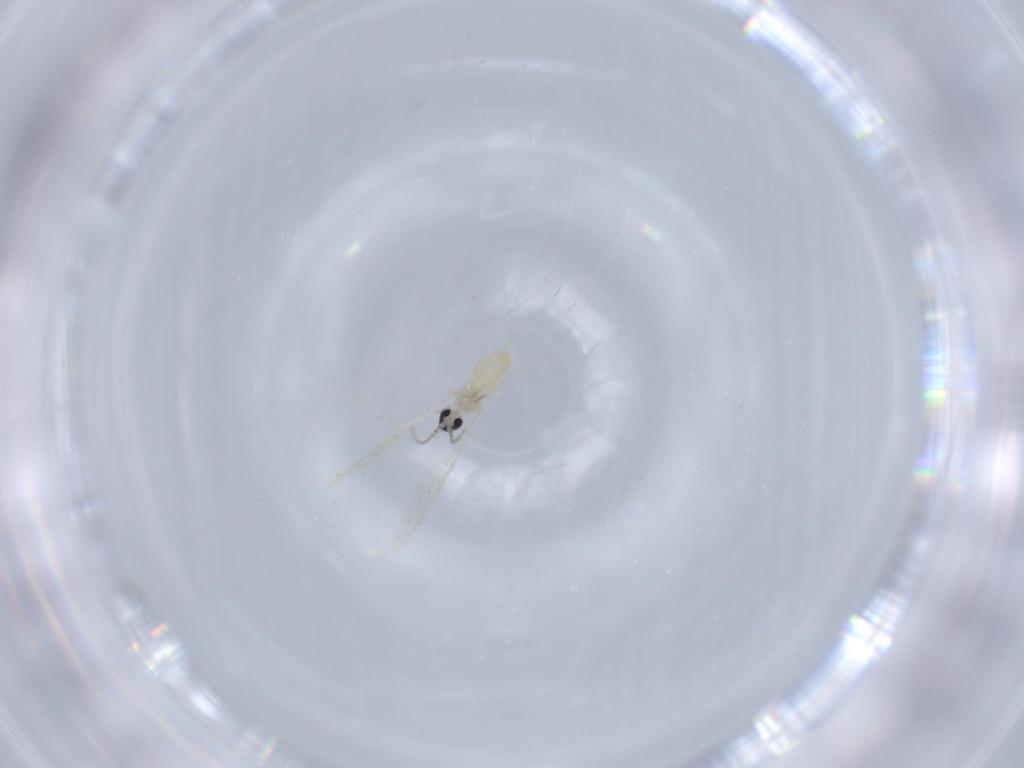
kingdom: Animalia
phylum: Arthropoda
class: Insecta
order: Diptera
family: Cecidomyiidae
